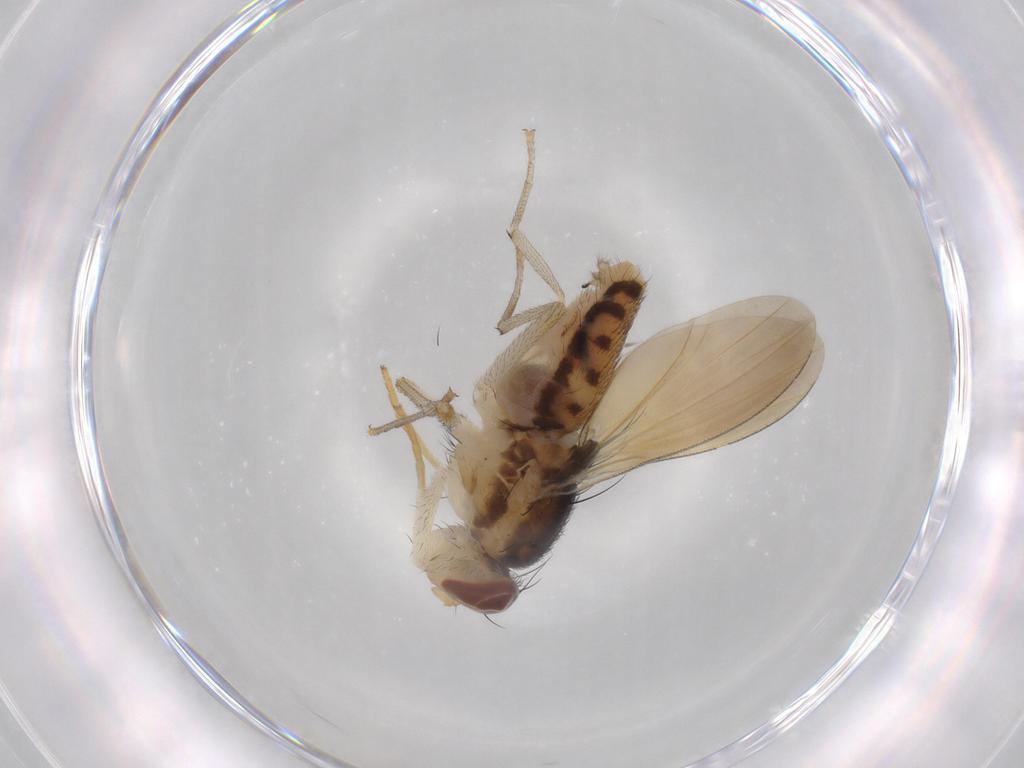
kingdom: Animalia
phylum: Arthropoda
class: Insecta
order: Diptera
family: Mycetophilidae
